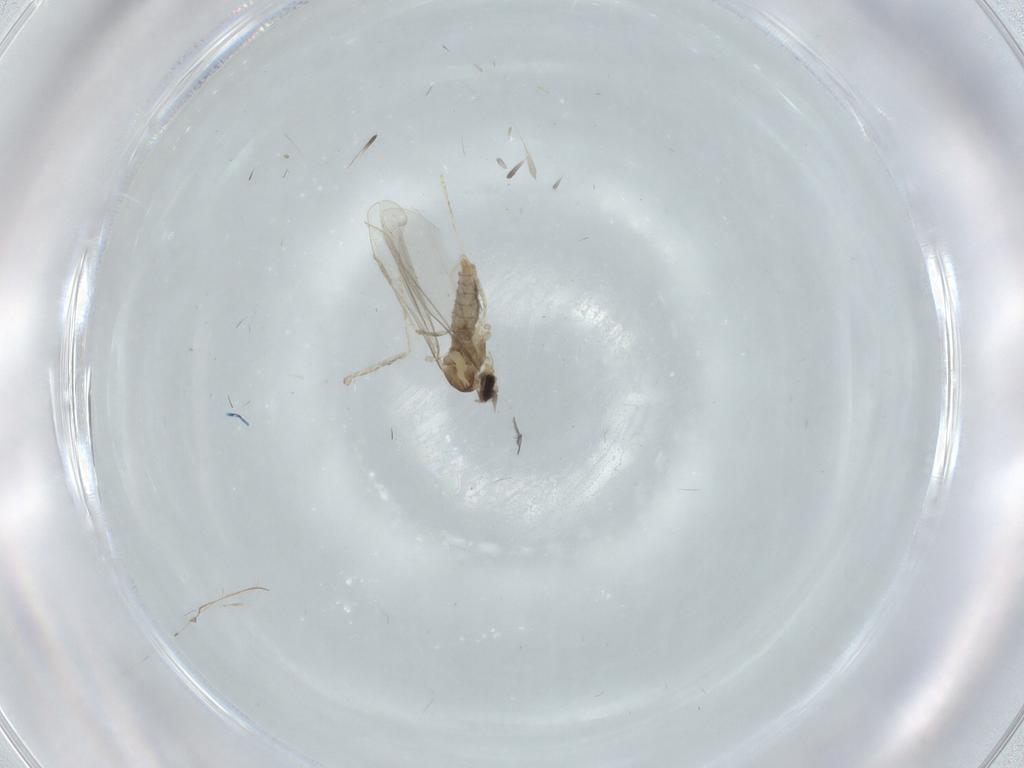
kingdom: Animalia
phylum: Arthropoda
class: Insecta
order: Diptera
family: Cecidomyiidae
